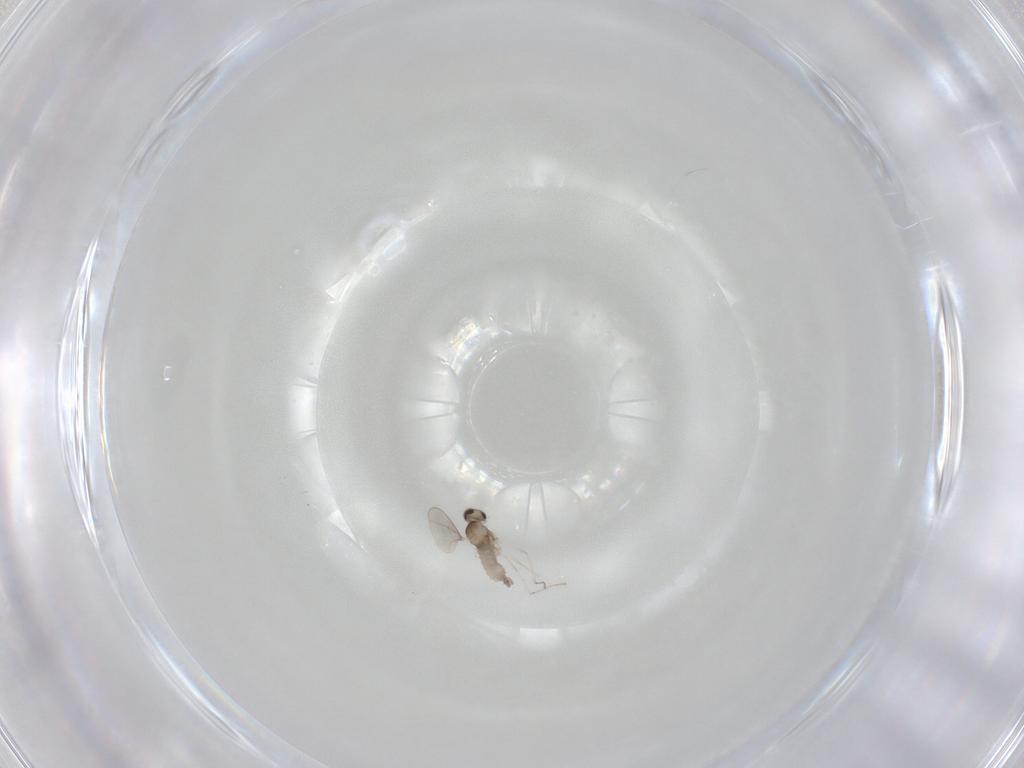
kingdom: Animalia
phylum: Arthropoda
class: Insecta
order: Diptera
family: Cecidomyiidae
